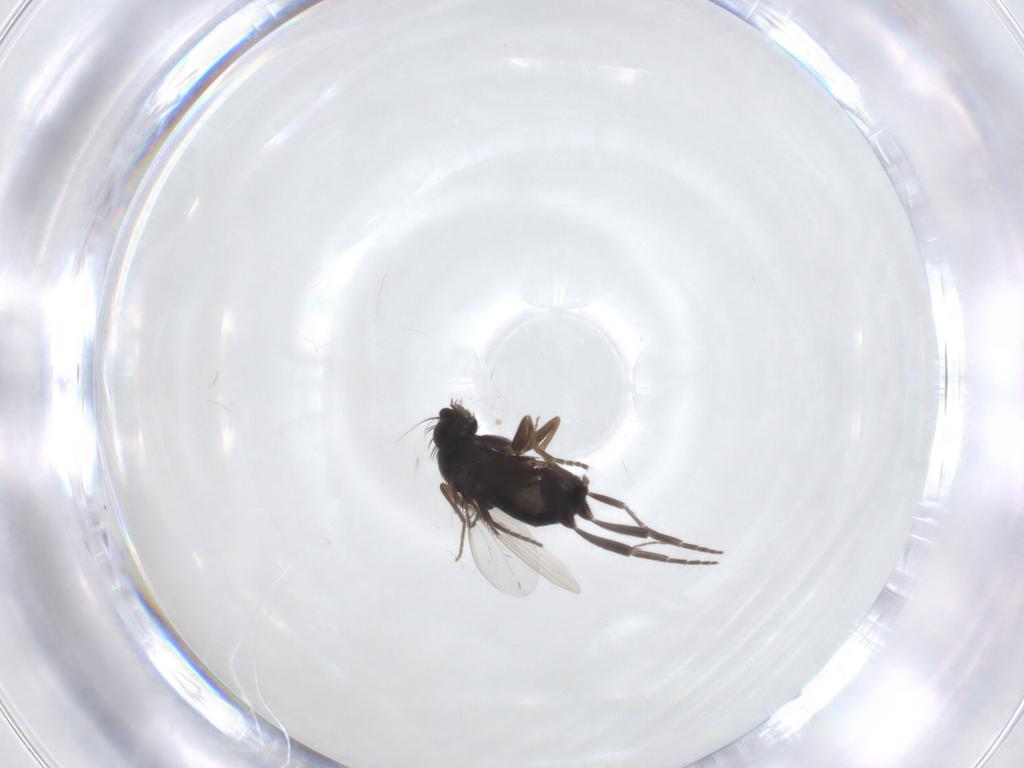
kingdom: Animalia
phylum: Arthropoda
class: Insecta
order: Diptera
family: Phoridae
